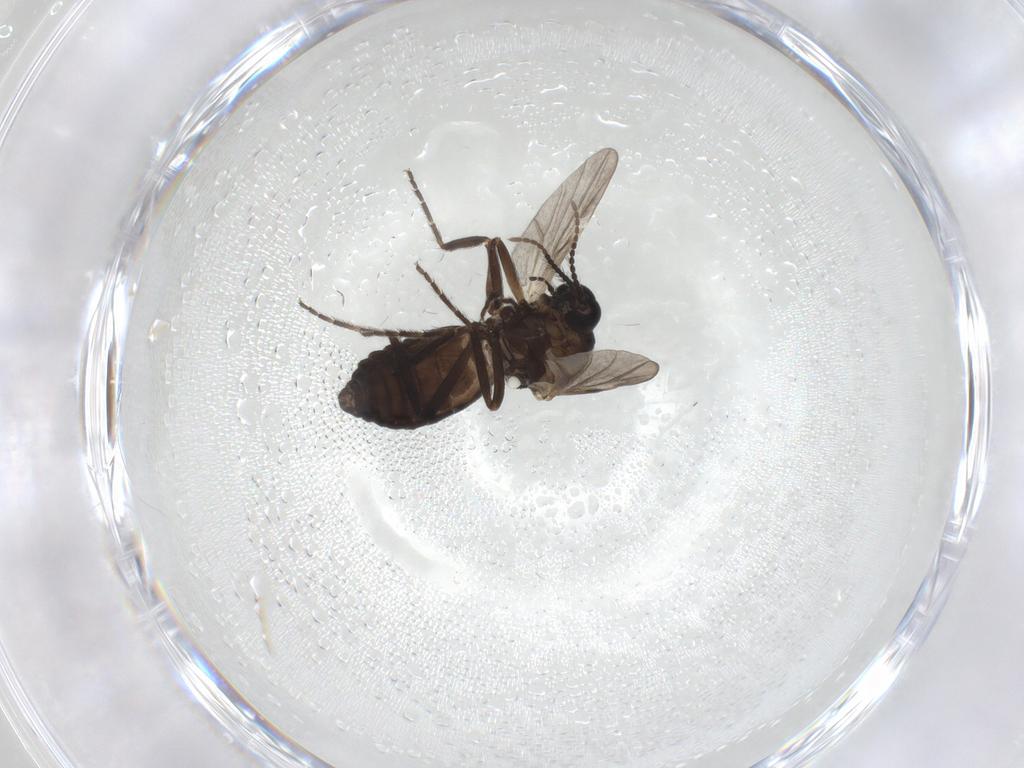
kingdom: Animalia
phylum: Arthropoda
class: Insecta
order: Diptera
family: Ceratopogonidae
